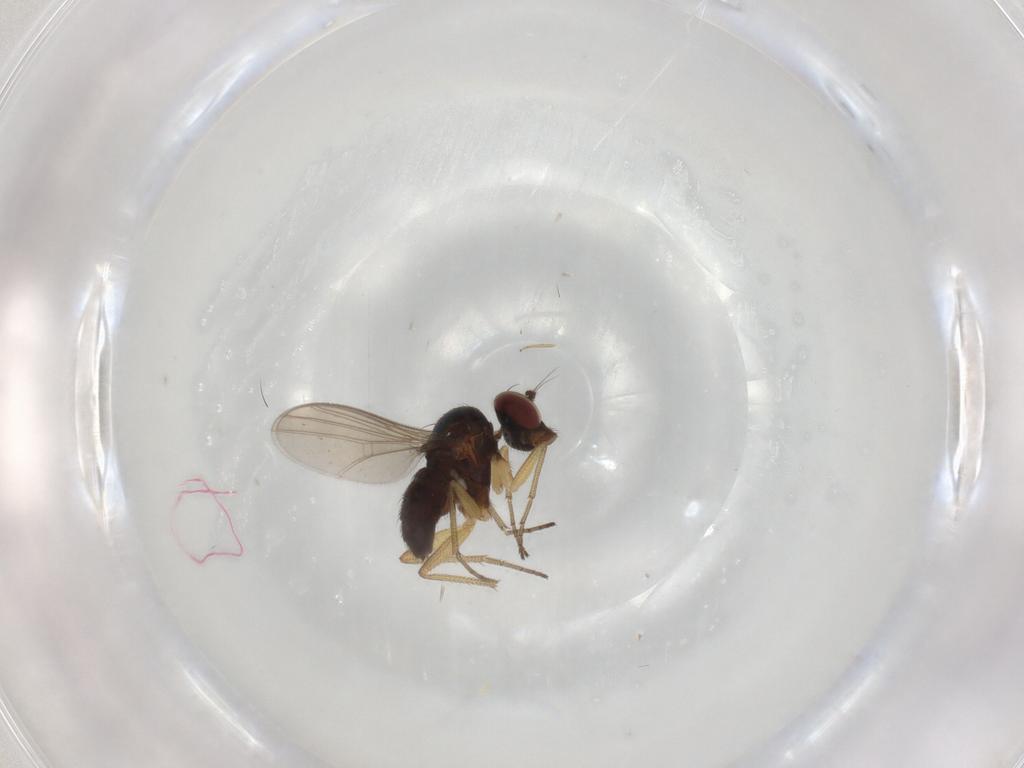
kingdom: Animalia
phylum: Arthropoda
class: Insecta
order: Diptera
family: Dolichopodidae
